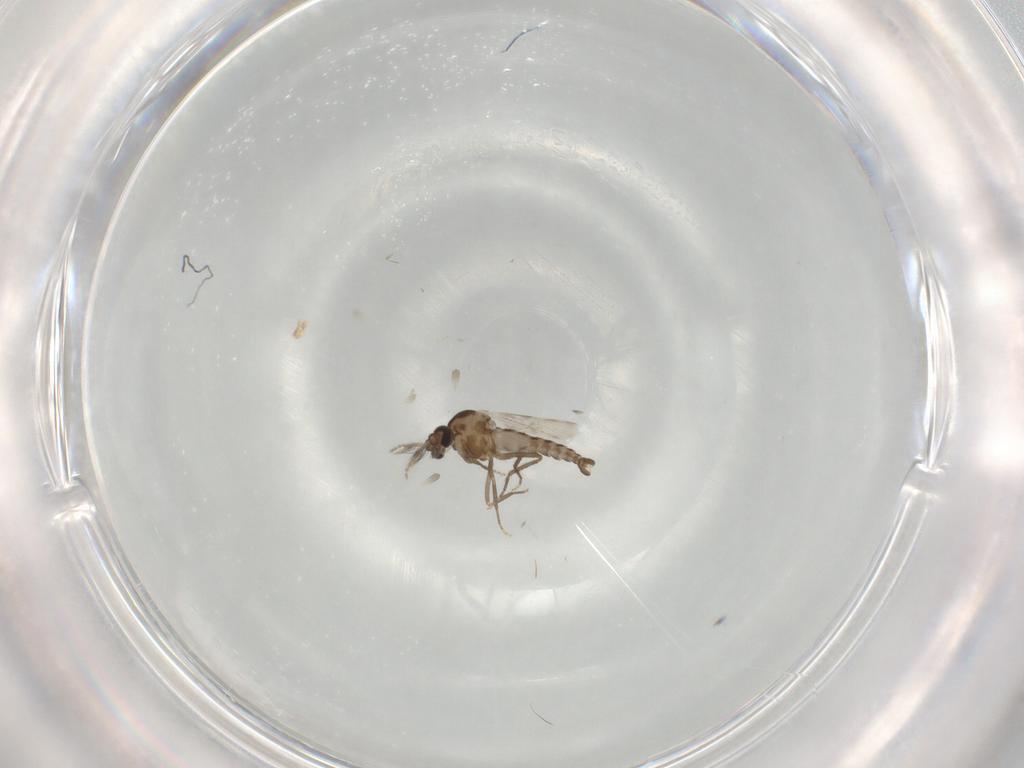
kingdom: Animalia
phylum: Arthropoda
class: Insecta
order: Diptera
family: Ceratopogonidae
